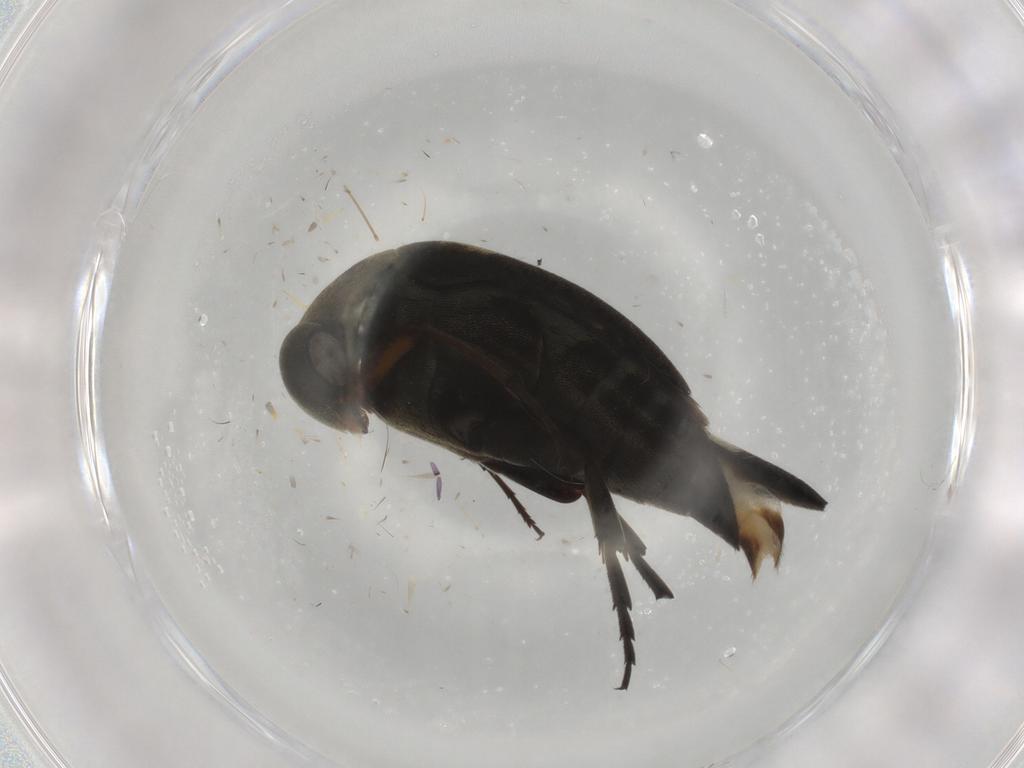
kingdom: Animalia
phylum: Arthropoda
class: Insecta
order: Coleoptera
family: Mordellidae
